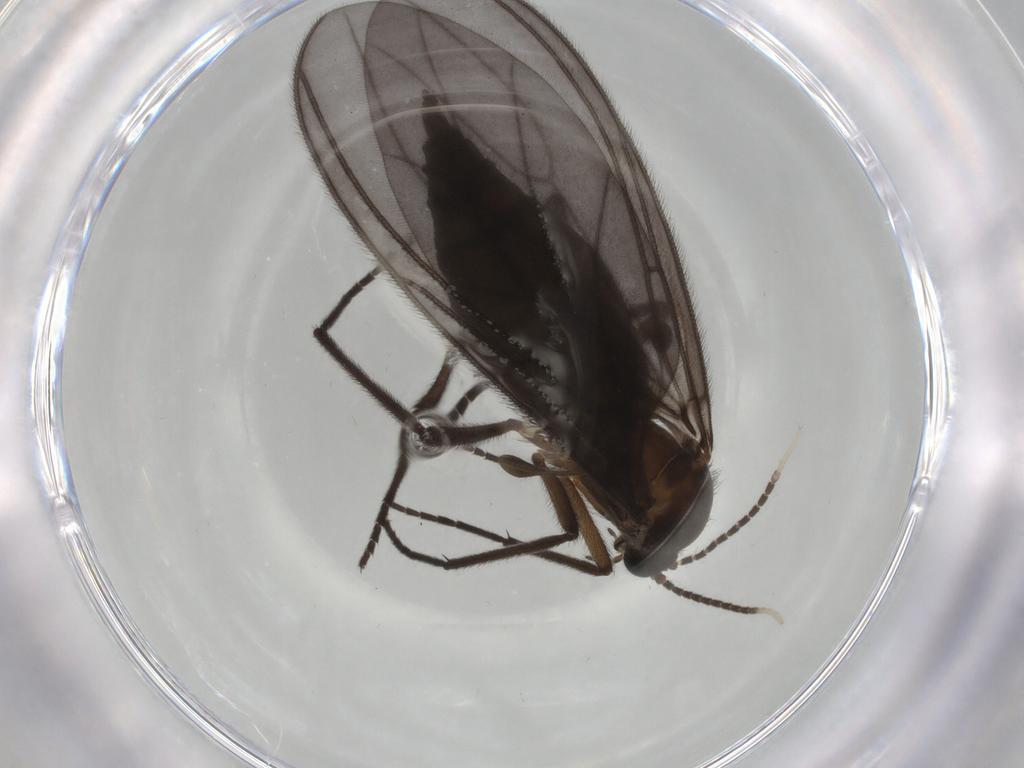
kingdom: Animalia
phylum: Arthropoda
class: Insecta
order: Diptera
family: Sciaridae
